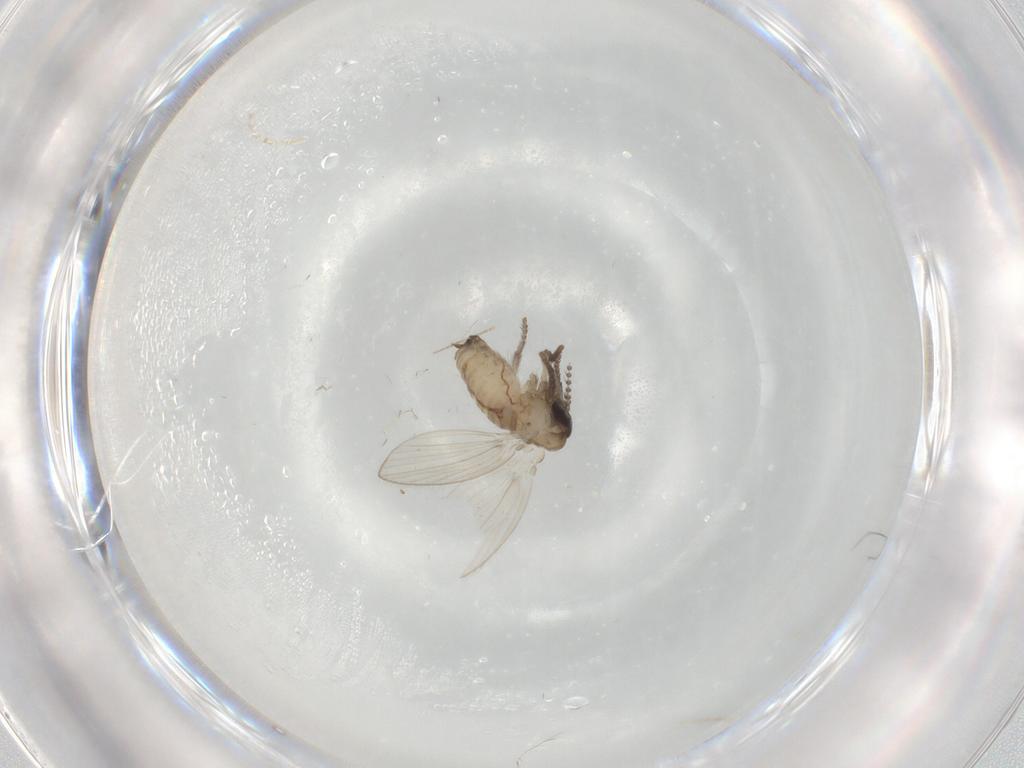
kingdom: Animalia
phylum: Arthropoda
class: Insecta
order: Diptera
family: Psychodidae
